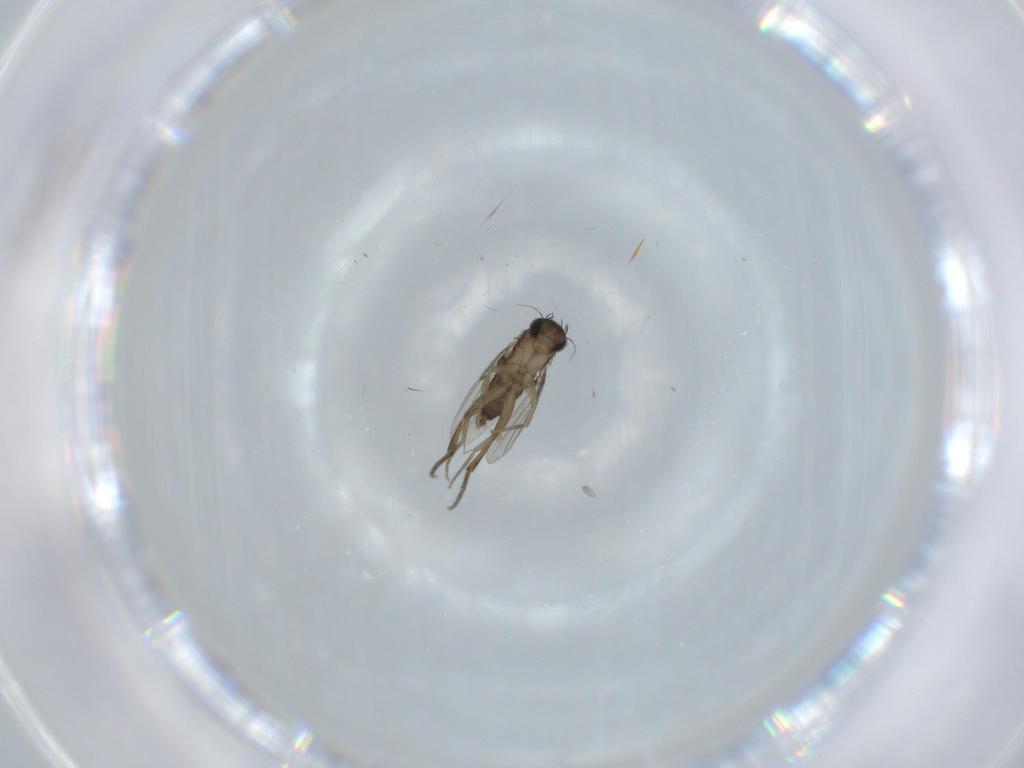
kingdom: Animalia
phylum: Arthropoda
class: Insecta
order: Diptera
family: Phoridae
